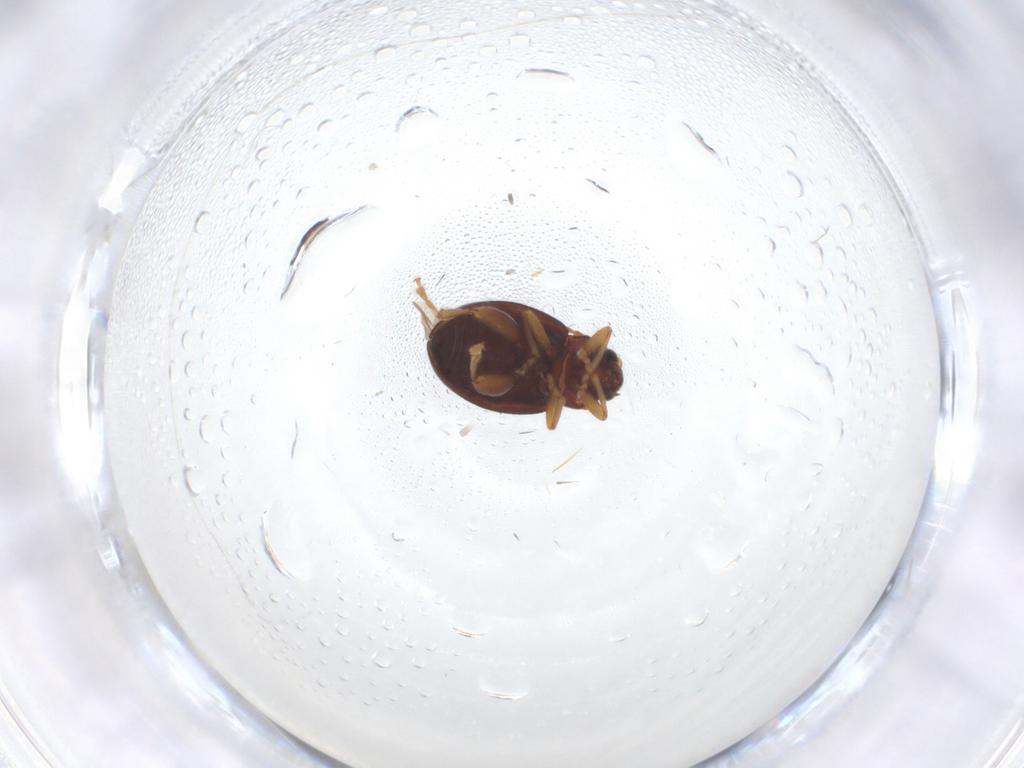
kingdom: Animalia
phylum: Arthropoda
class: Insecta
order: Coleoptera
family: Chrysomelidae
